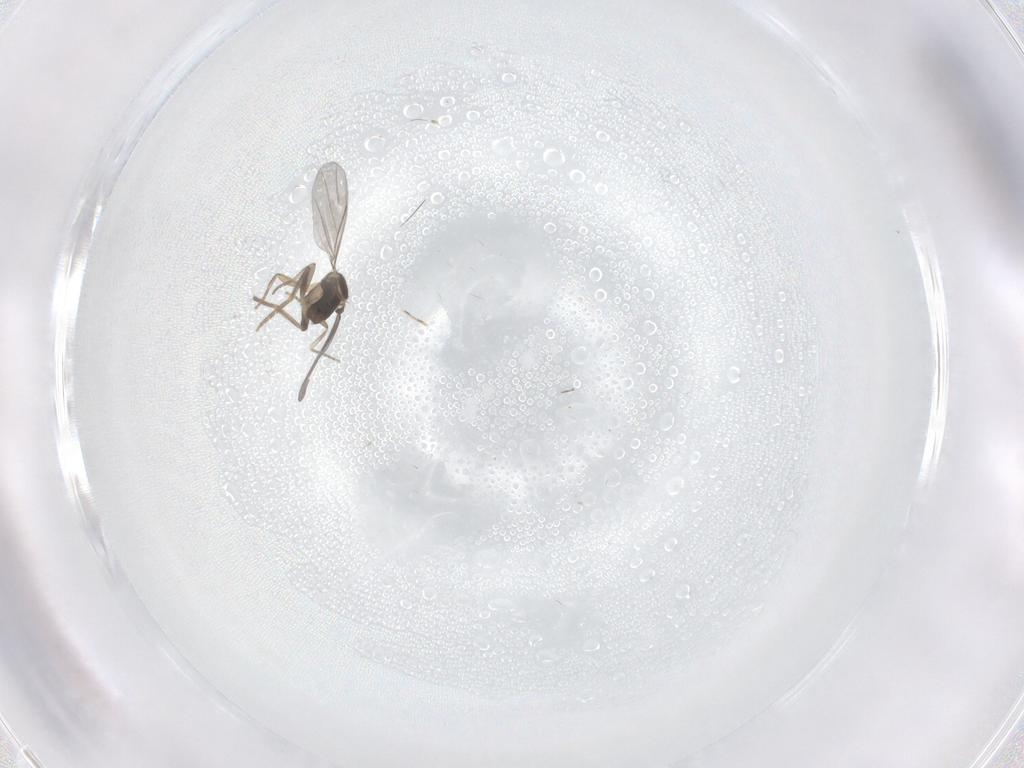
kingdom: Animalia
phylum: Arthropoda
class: Insecta
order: Diptera
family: Chironomidae
